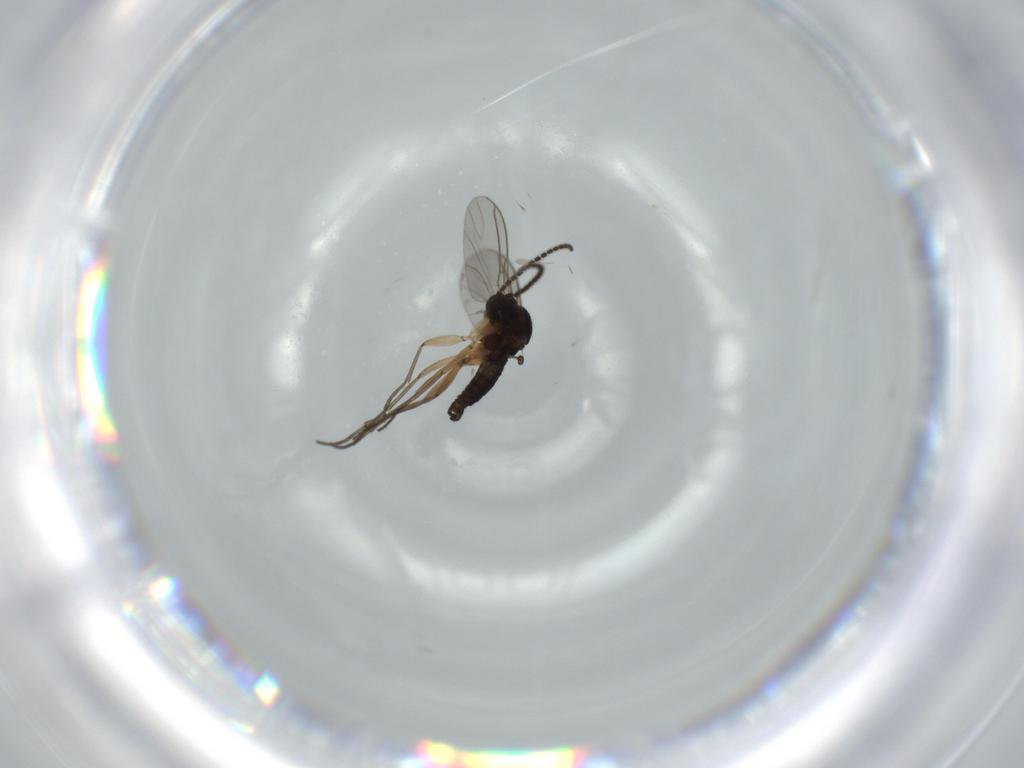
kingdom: Animalia
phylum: Arthropoda
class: Insecta
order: Diptera
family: Sciaridae
